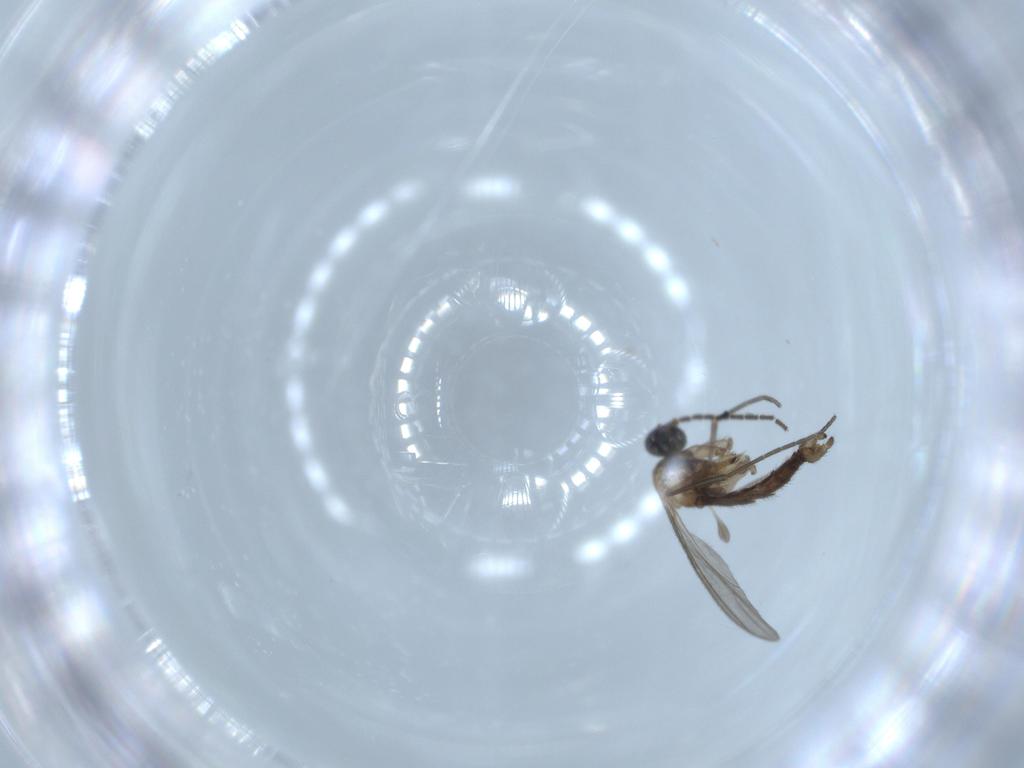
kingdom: Animalia
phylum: Arthropoda
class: Insecta
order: Diptera
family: Sciaridae
